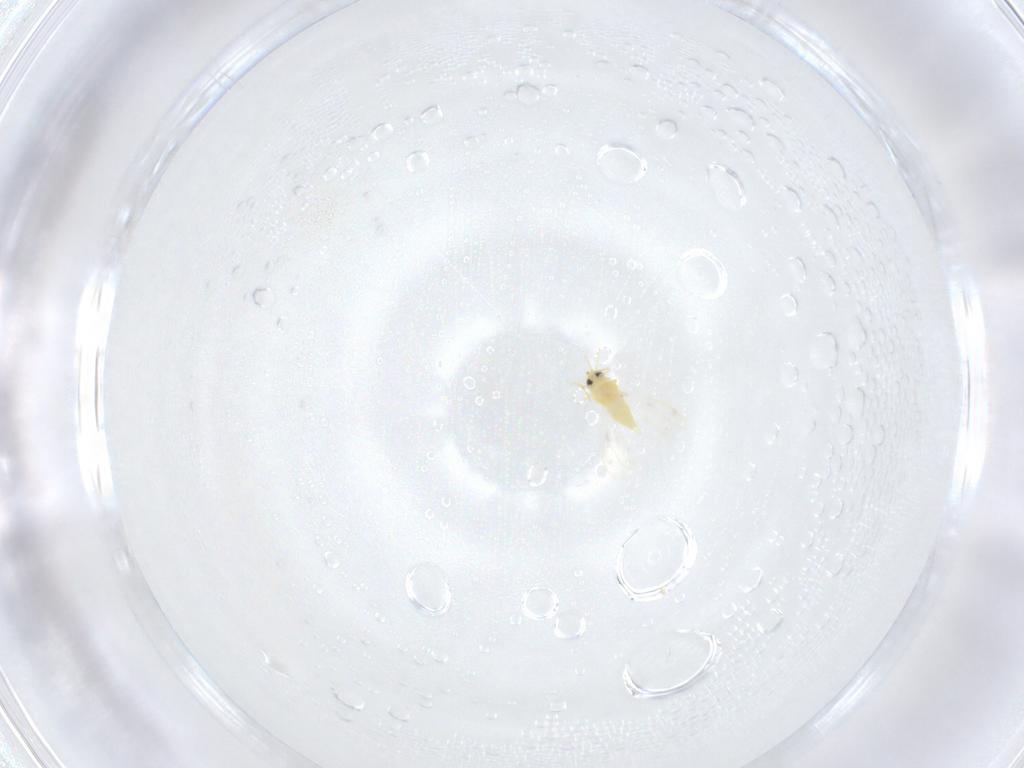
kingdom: Animalia
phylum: Arthropoda
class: Insecta
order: Hemiptera
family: Aleyrodidae
